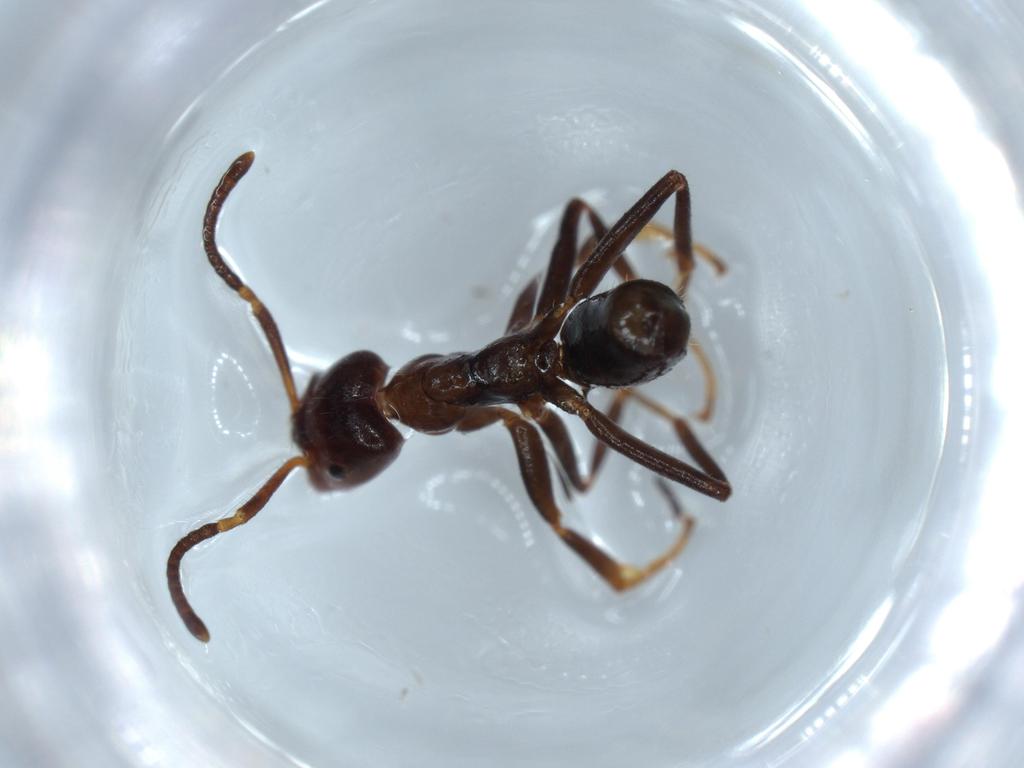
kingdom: Animalia
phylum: Arthropoda
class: Insecta
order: Hymenoptera
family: Formicidae
